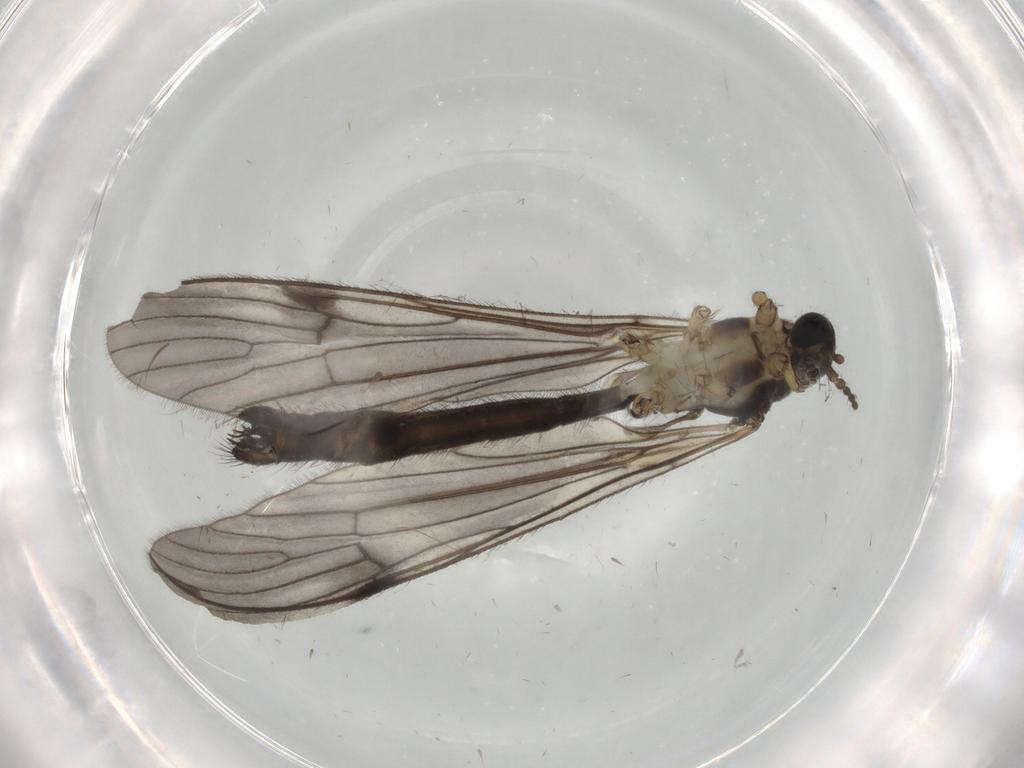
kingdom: Animalia
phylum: Arthropoda
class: Insecta
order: Diptera
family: Limoniidae
